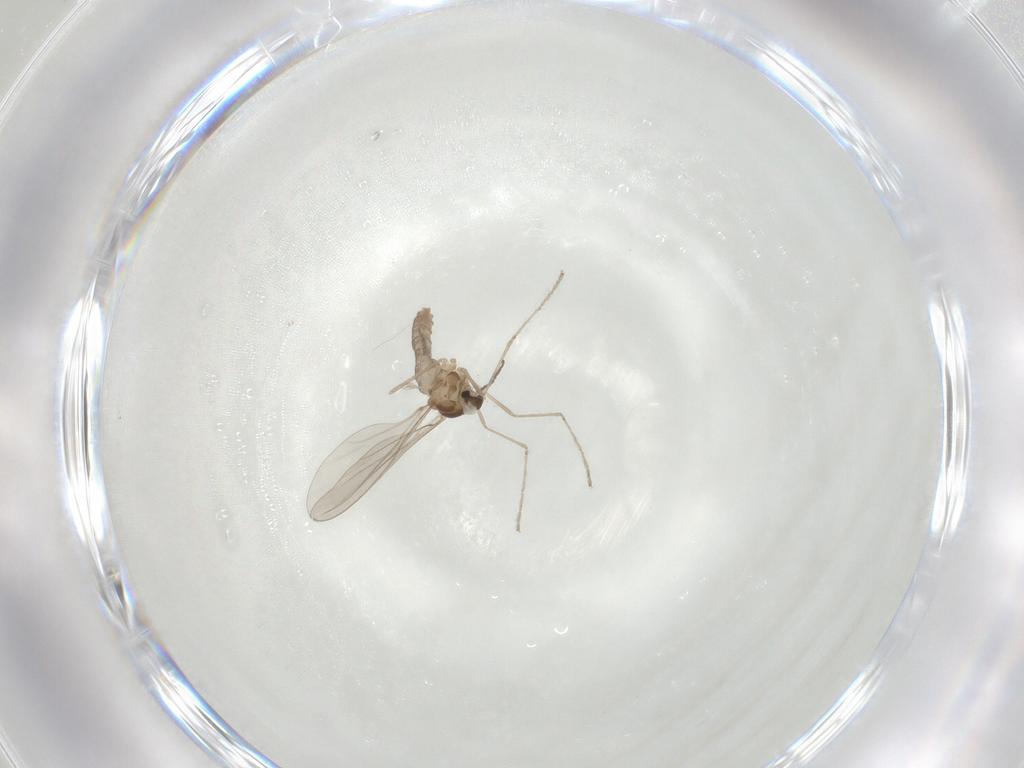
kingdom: Animalia
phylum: Arthropoda
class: Insecta
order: Diptera
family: Cecidomyiidae
